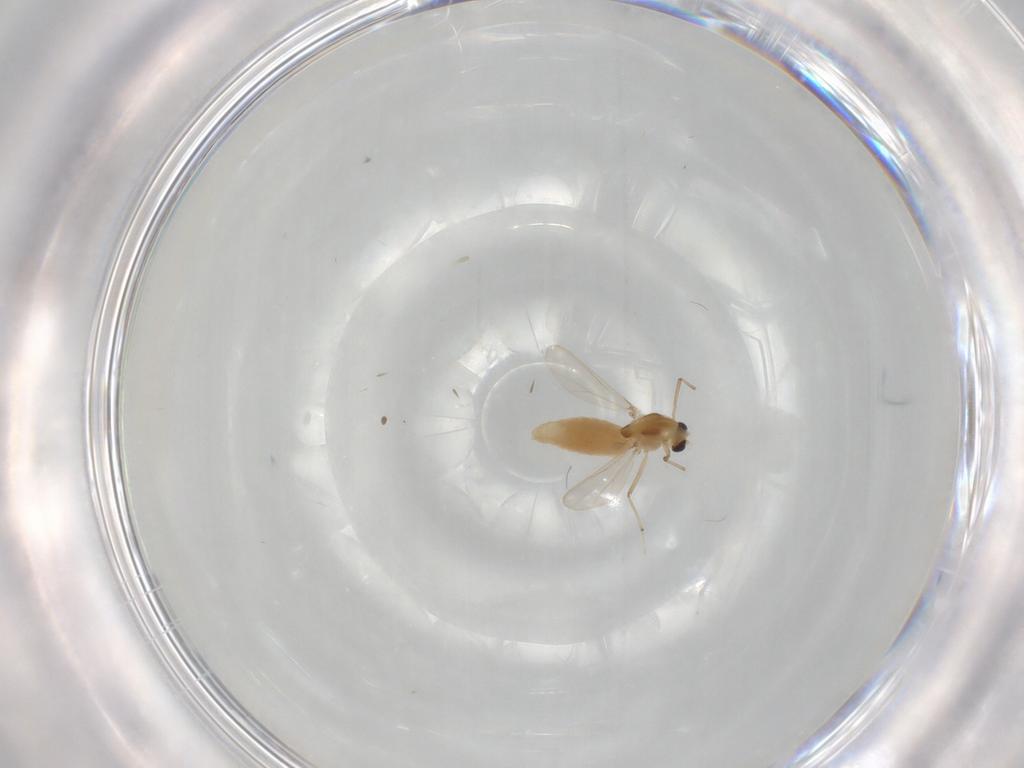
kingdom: Animalia
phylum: Arthropoda
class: Insecta
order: Diptera
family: Chironomidae
